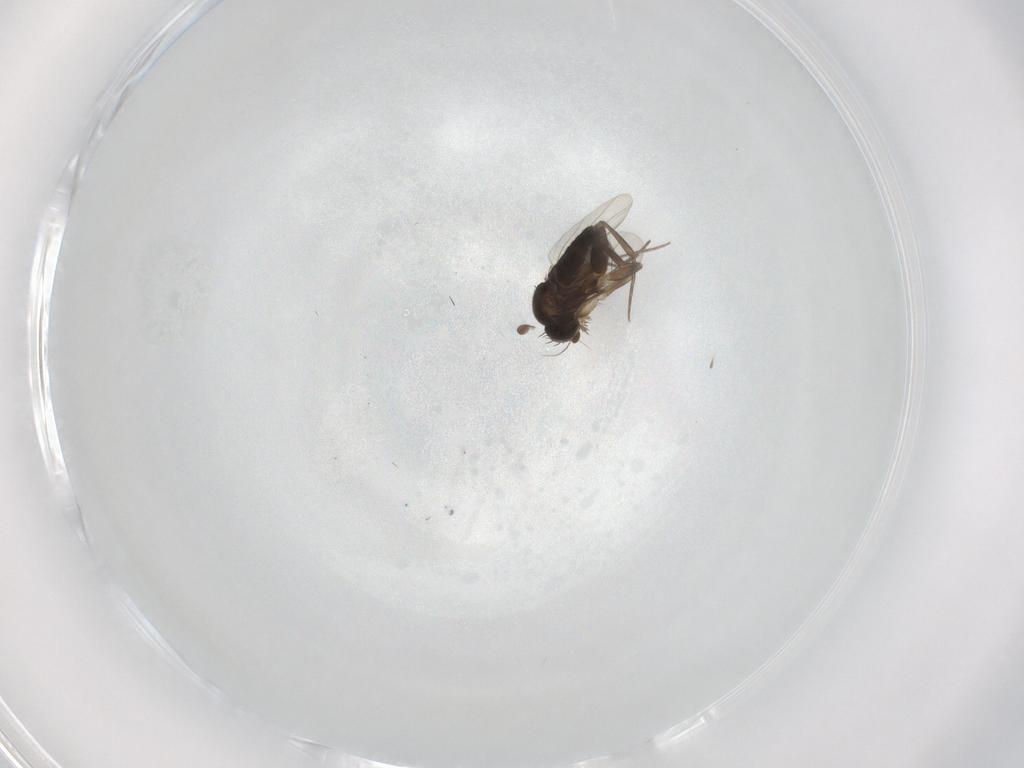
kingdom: Animalia
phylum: Arthropoda
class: Insecta
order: Diptera
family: Phoridae
